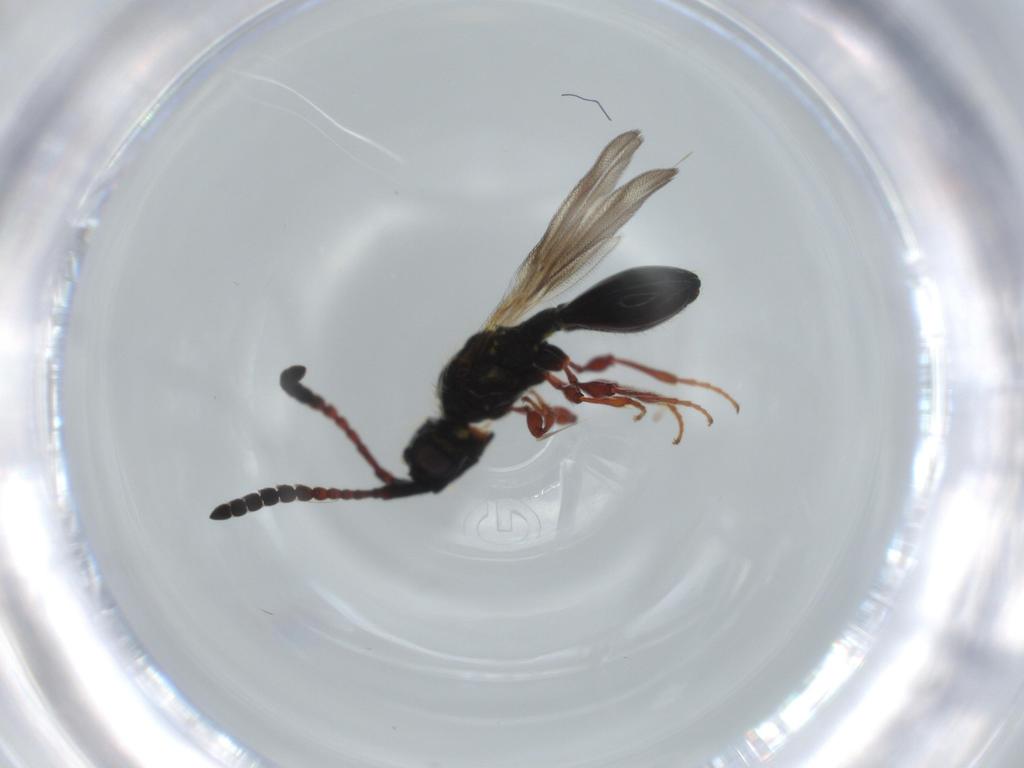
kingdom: Animalia
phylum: Arthropoda
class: Insecta
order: Hymenoptera
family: Diapriidae
